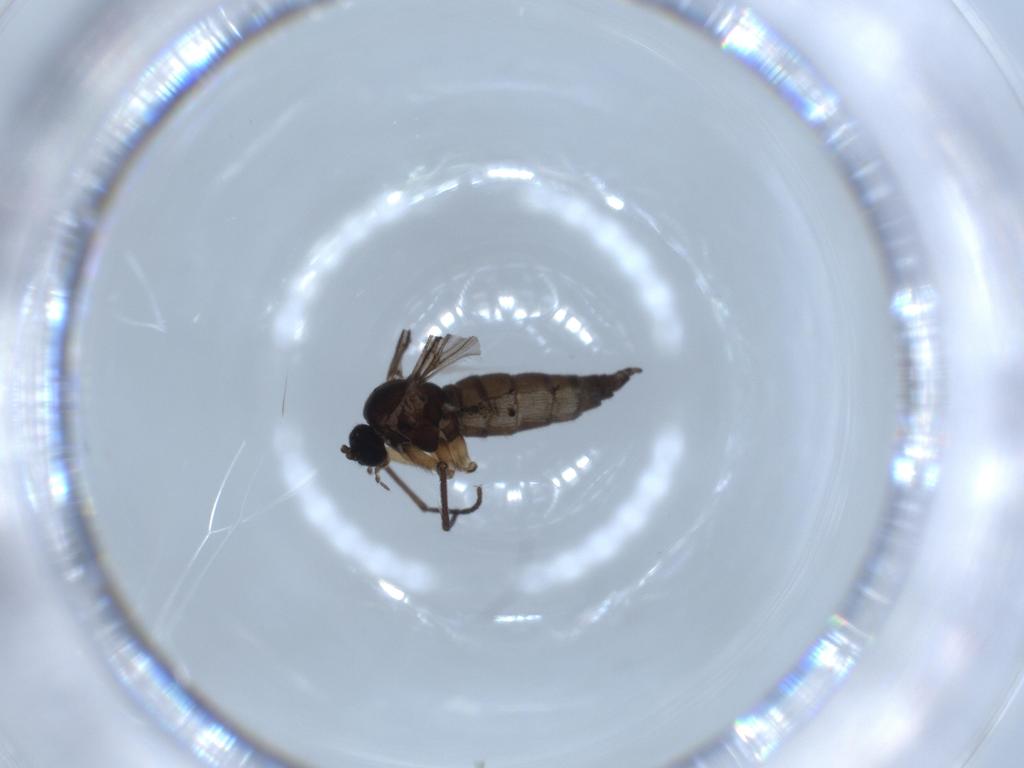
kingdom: Animalia
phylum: Arthropoda
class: Insecta
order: Diptera
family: Sciaridae
